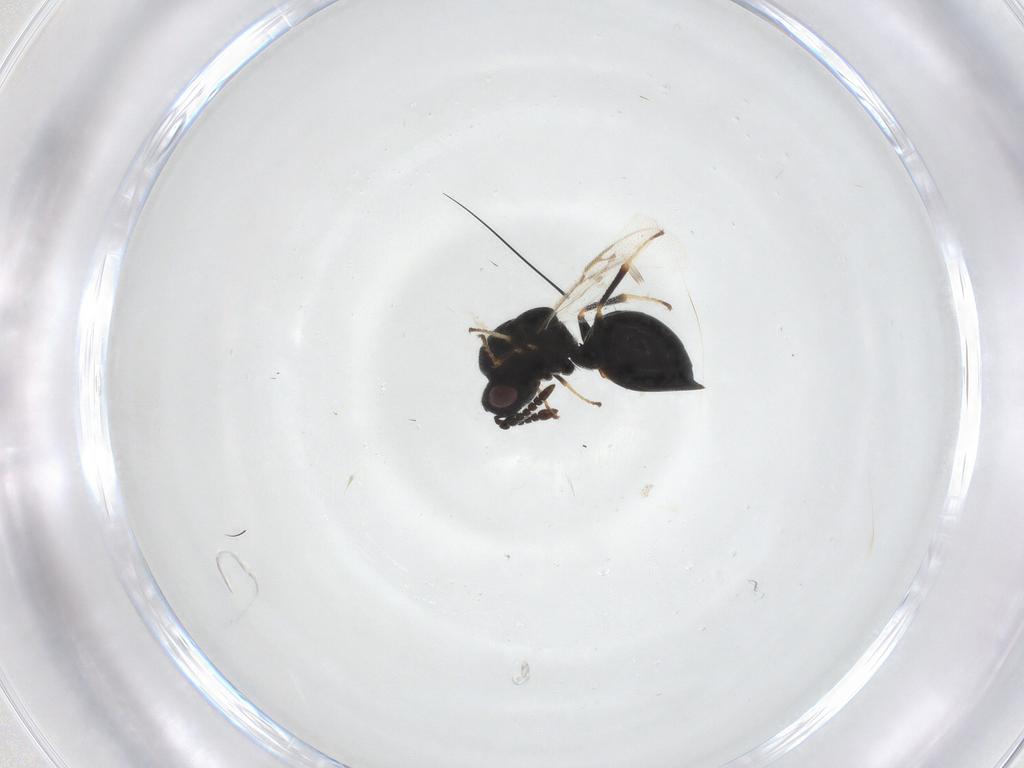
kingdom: Animalia
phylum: Arthropoda
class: Insecta
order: Hymenoptera
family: Eurytomidae
